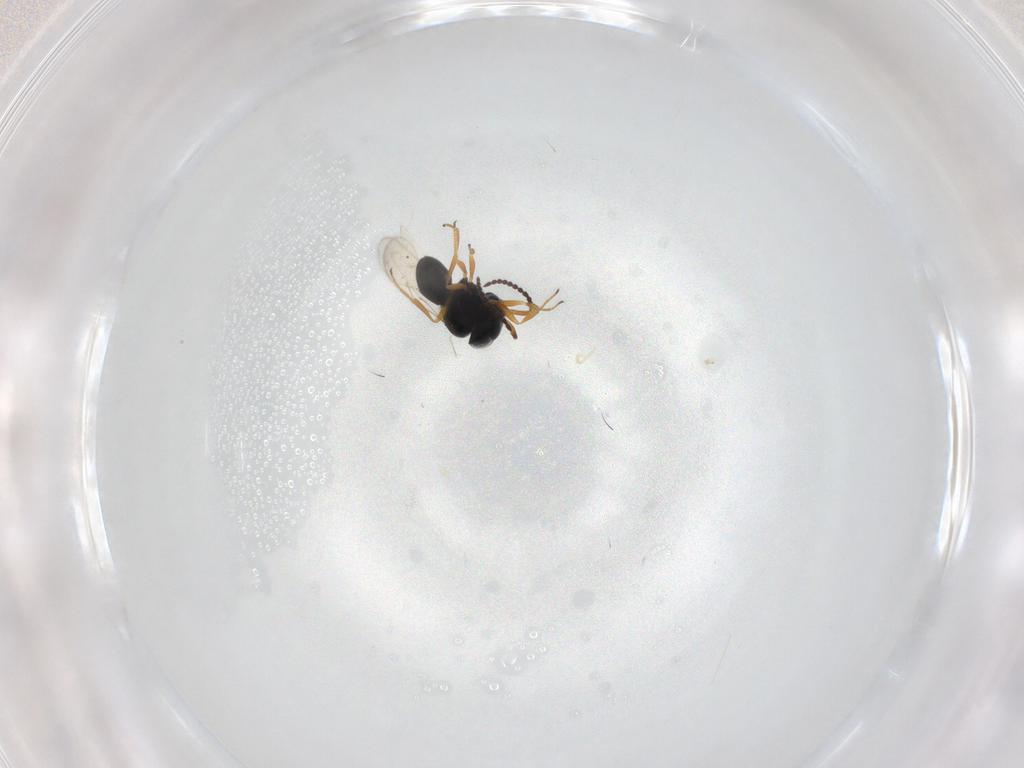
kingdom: Animalia
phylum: Arthropoda
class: Insecta
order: Hymenoptera
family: Scelionidae
